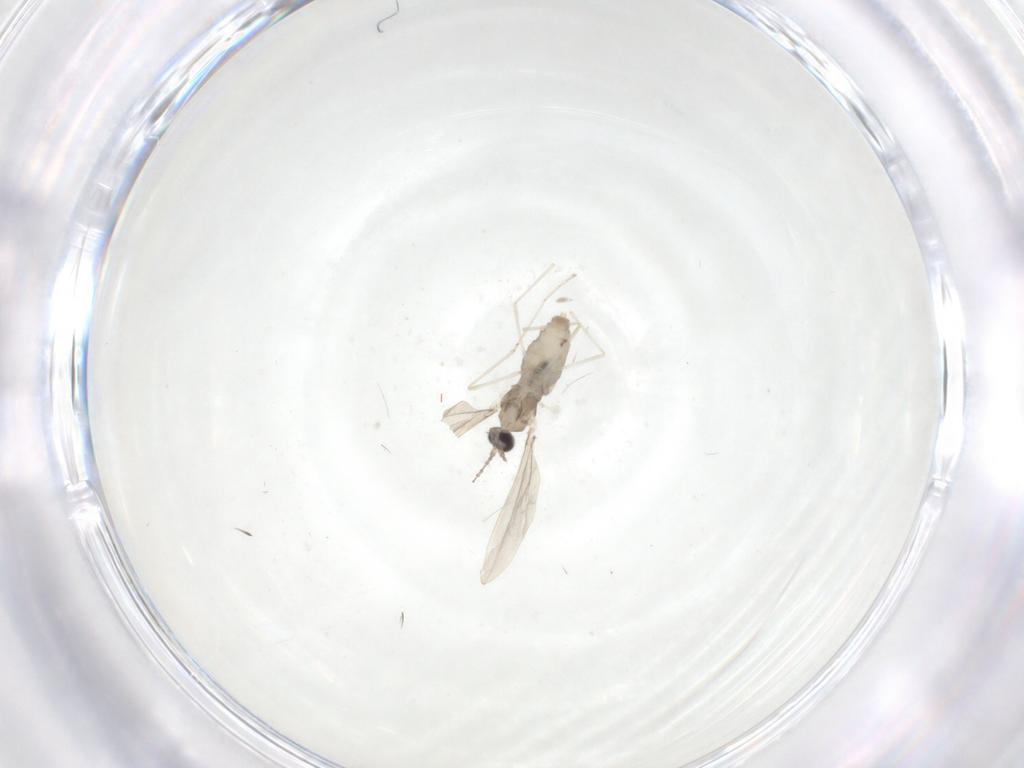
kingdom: Animalia
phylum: Arthropoda
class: Insecta
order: Diptera
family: Cecidomyiidae
